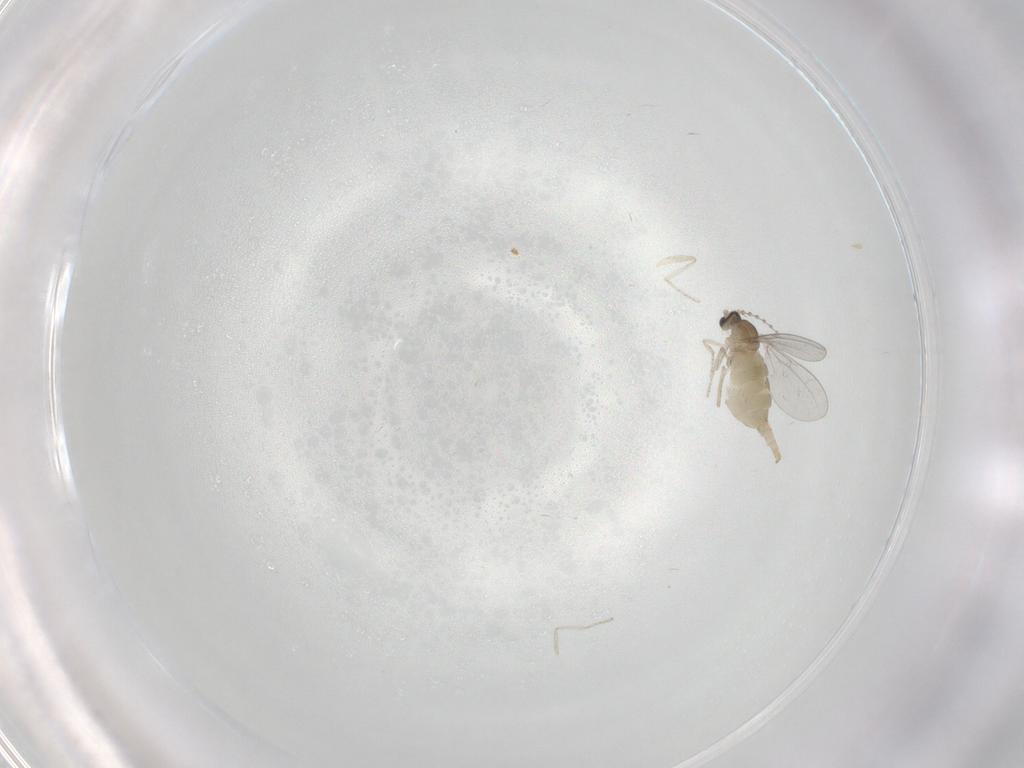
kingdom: Animalia
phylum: Arthropoda
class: Insecta
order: Diptera
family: Cecidomyiidae
